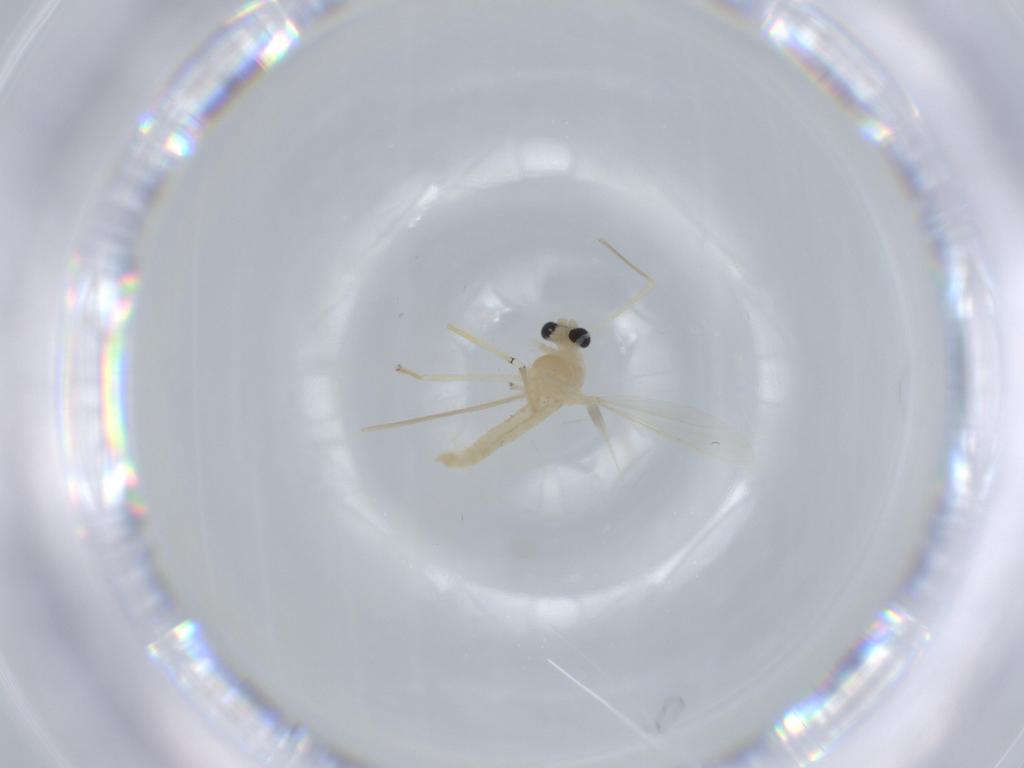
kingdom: Animalia
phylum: Arthropoda
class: Insecta
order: Diptera
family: Chironomidae
